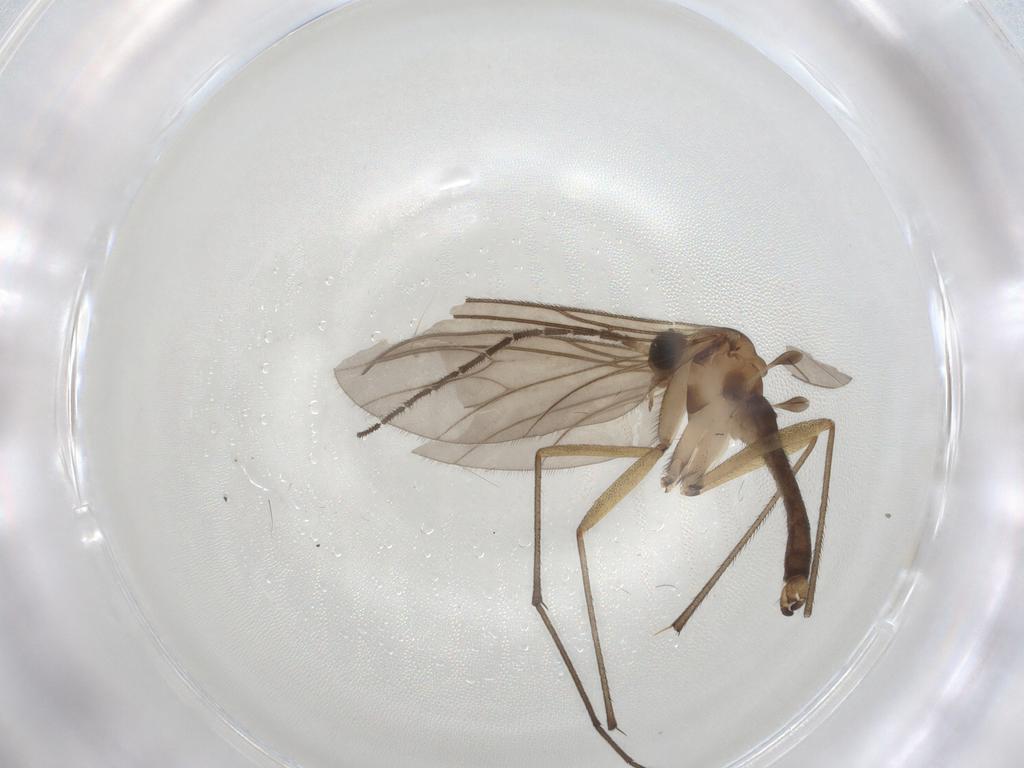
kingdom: Animalia
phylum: Arthropoda
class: Insecta
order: Diptera
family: Sciaridae
